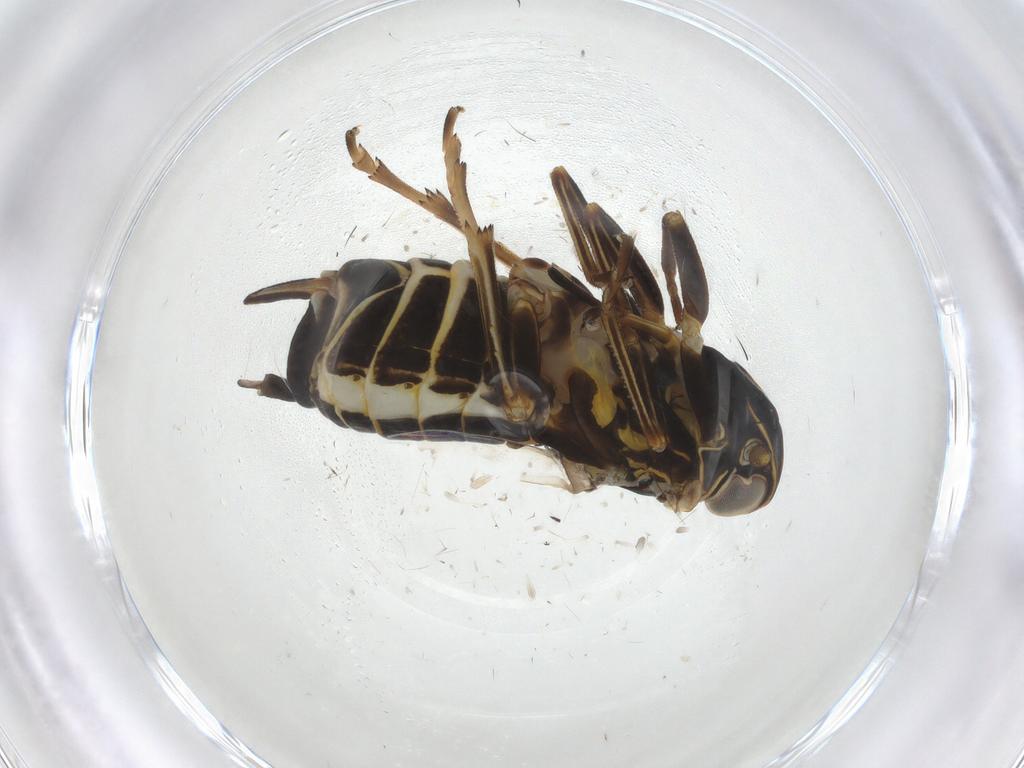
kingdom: Animalia
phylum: Arthropoda
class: Insecta
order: Hemiptera
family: Cixiidae
